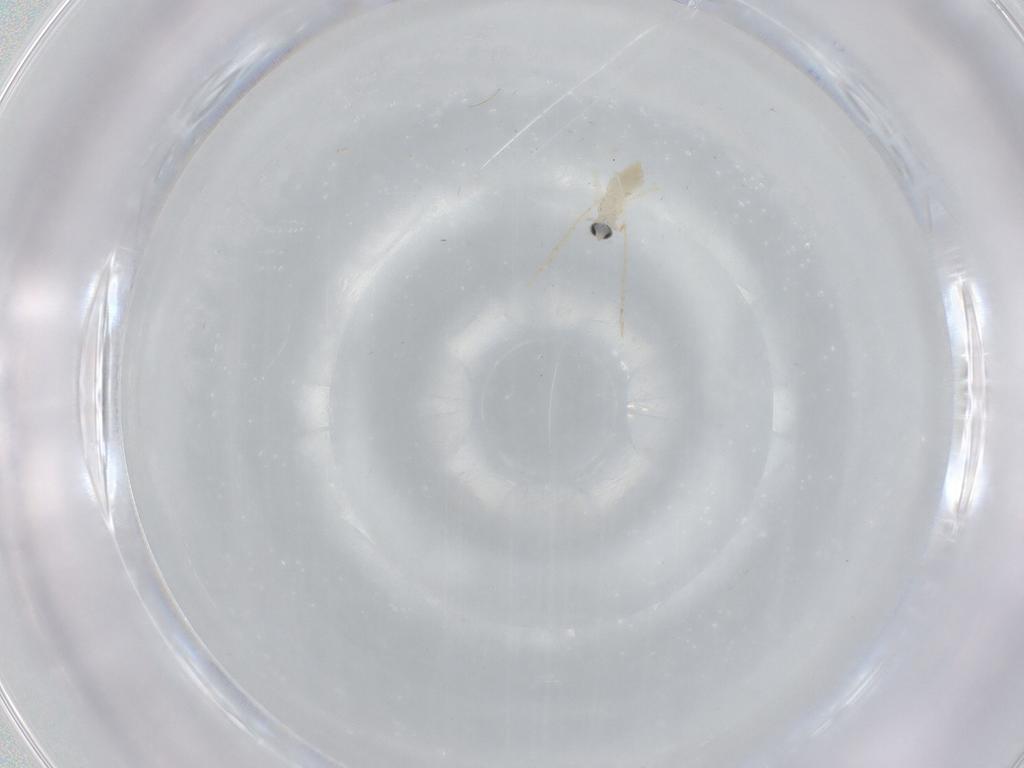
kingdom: Animalia
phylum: Arthropoda
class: Insecta
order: Diptera
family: Cecidomyiidae
